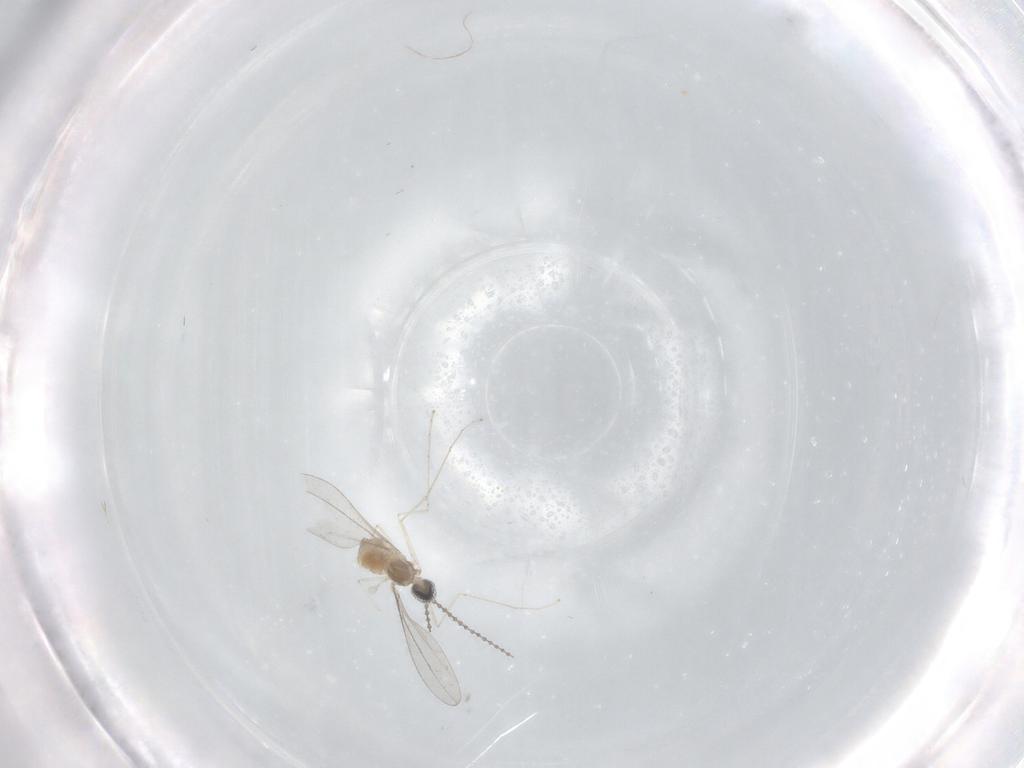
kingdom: Animalia
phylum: Arthropoda
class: Insecta
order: Diptera
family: Cecidomyiidae
